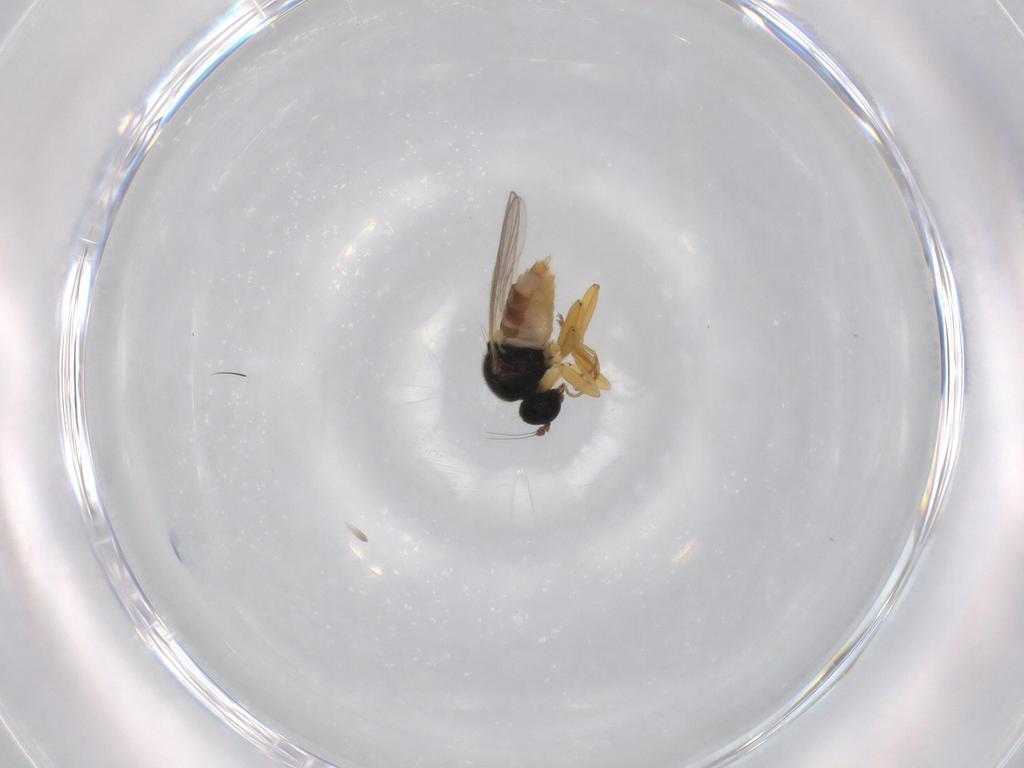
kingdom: Animalia
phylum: Arthropoda
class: Insecta
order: Diptera
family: Hybotidae
